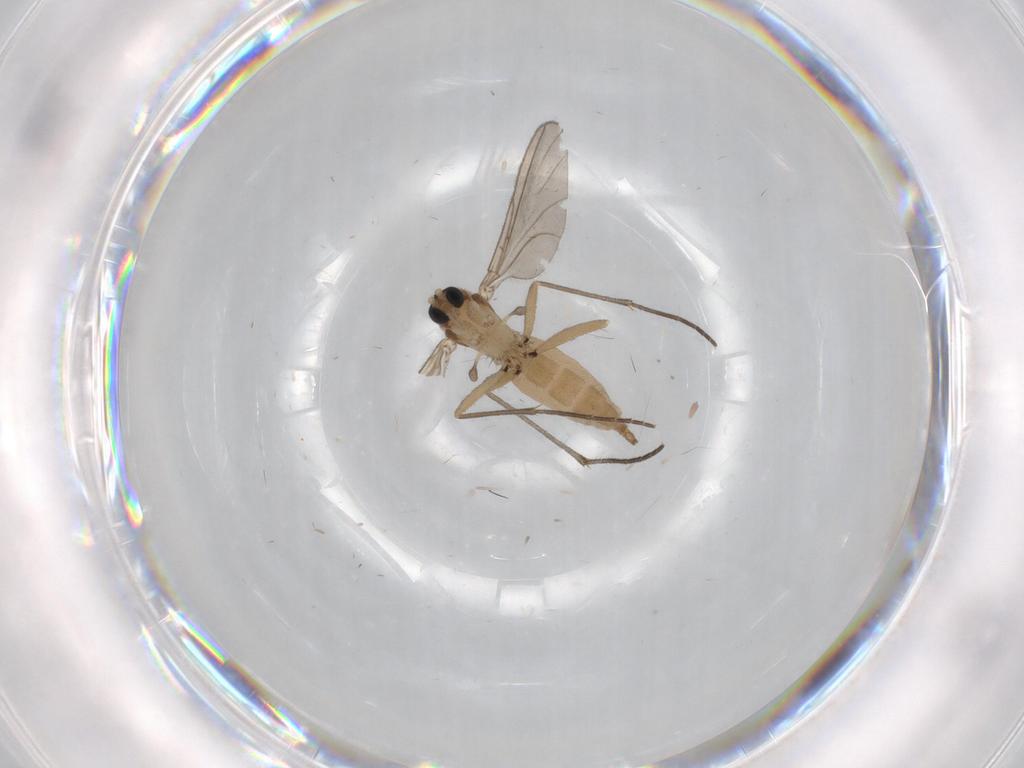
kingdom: Animalia
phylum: Arthropoda
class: Insecta
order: Diptera
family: Sciaridae
